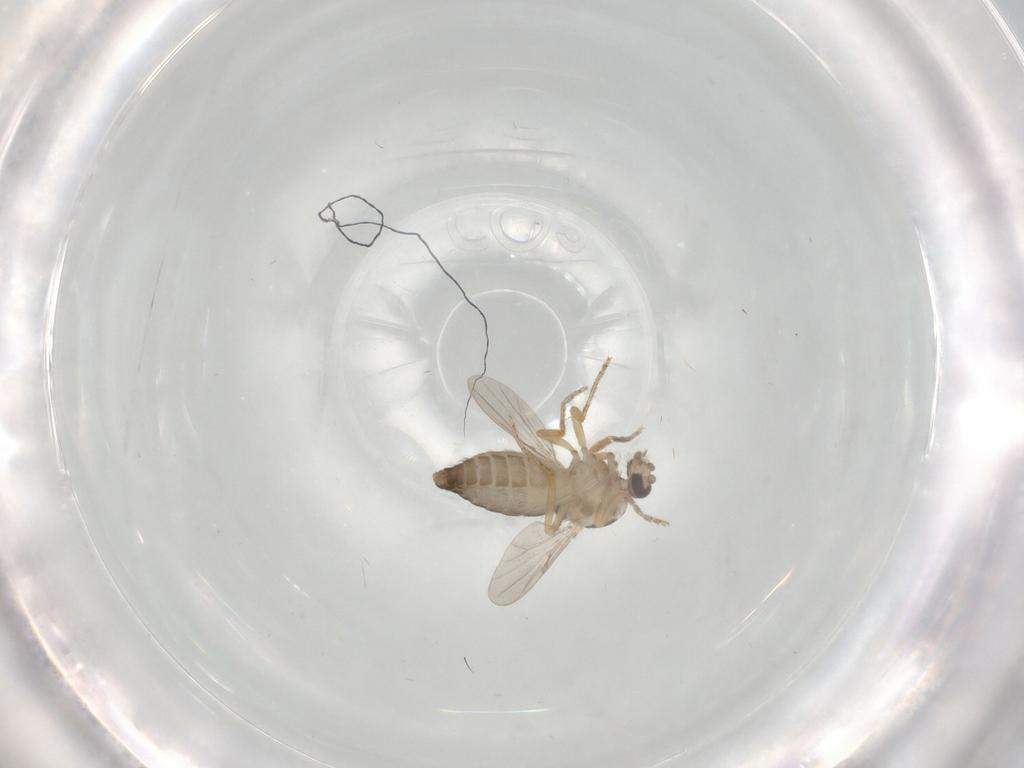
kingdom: Animalia
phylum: Arthropoda
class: Insecta
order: Diptera
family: Ceratopogonidae
